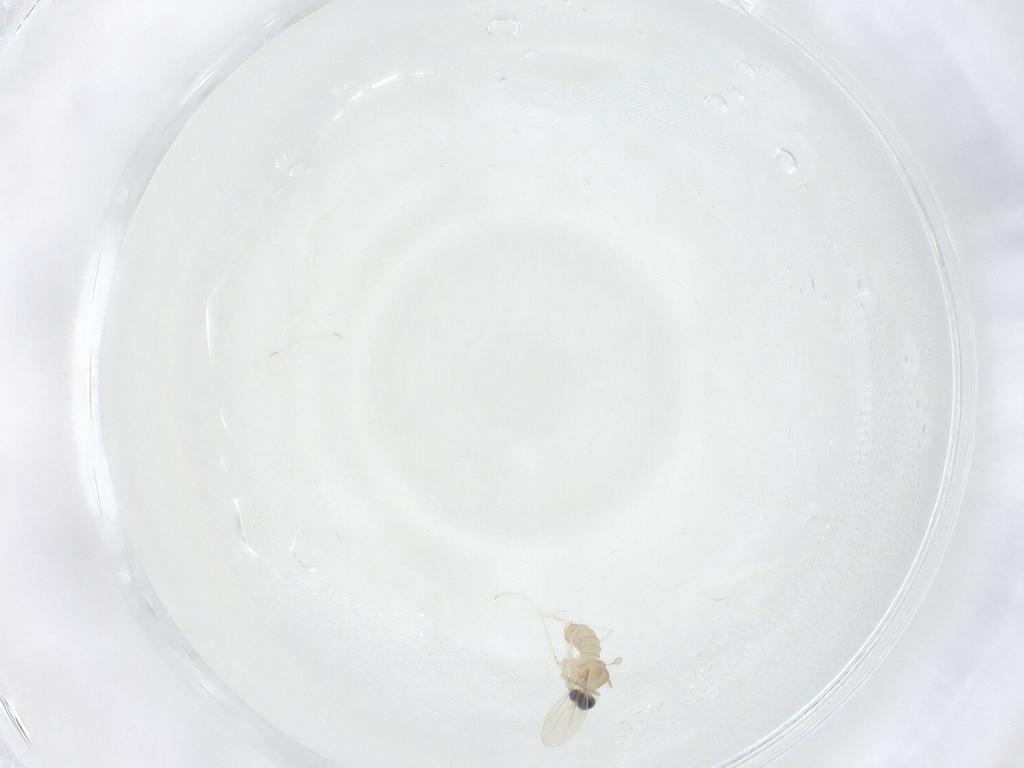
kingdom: Animalia
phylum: Arthropoda
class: Insecta
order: Diptera
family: Cecidomyiidae
